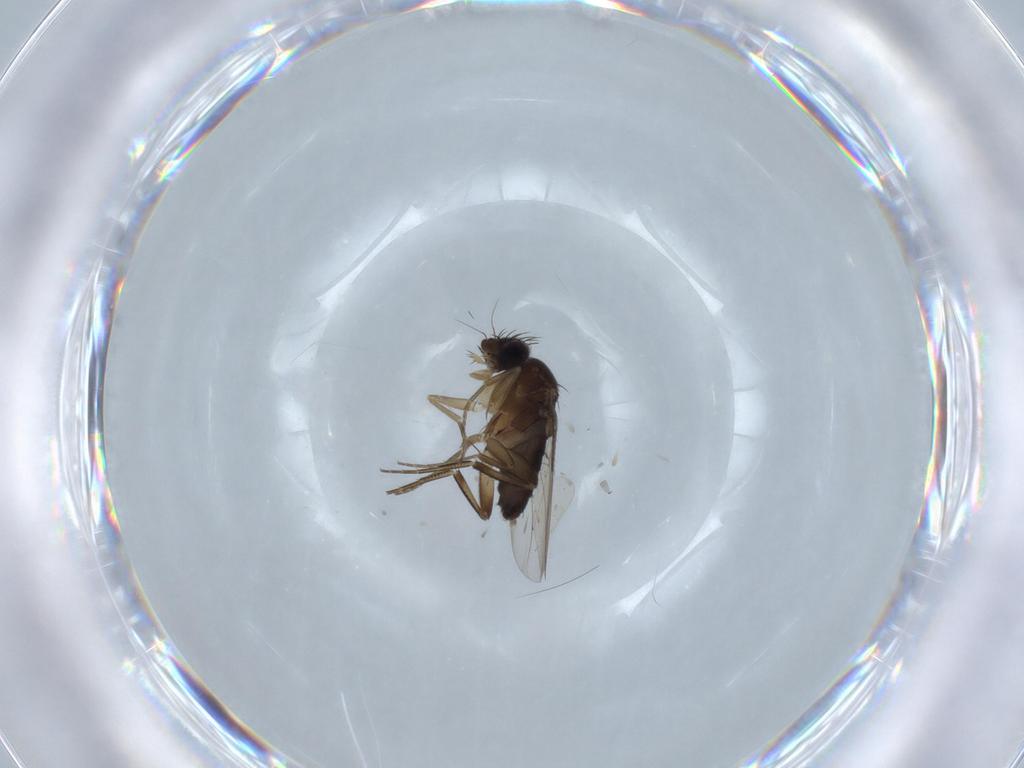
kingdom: Animalia
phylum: Arthropoda
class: Insecta
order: Diptera
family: Phoridae
